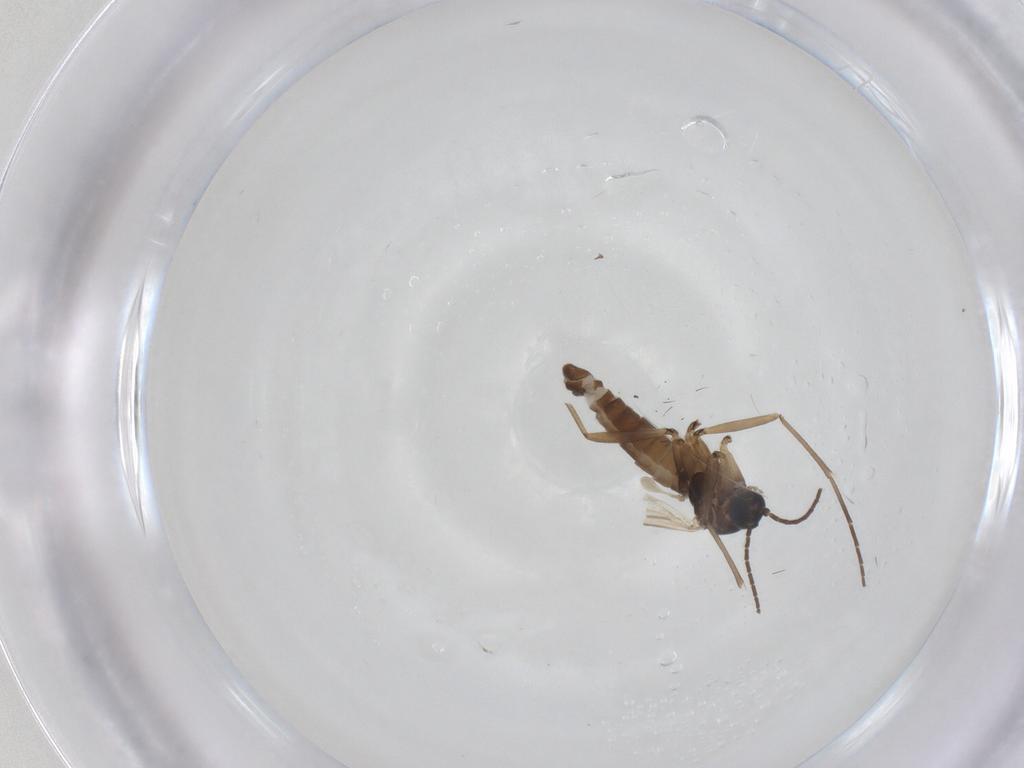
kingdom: Animalia
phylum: Arthropoda
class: Insecta
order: Diptera
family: Sciaridae
